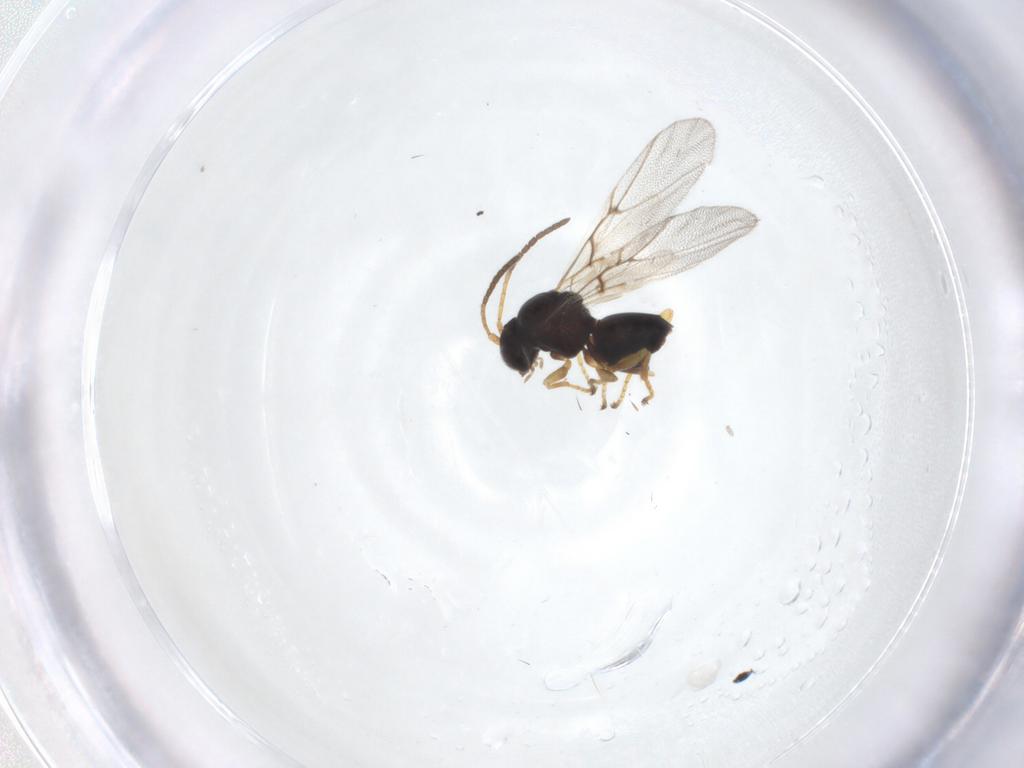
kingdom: Animalia
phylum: Arthropoda
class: Insecta
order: Hymenoptera
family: Cynipidae
